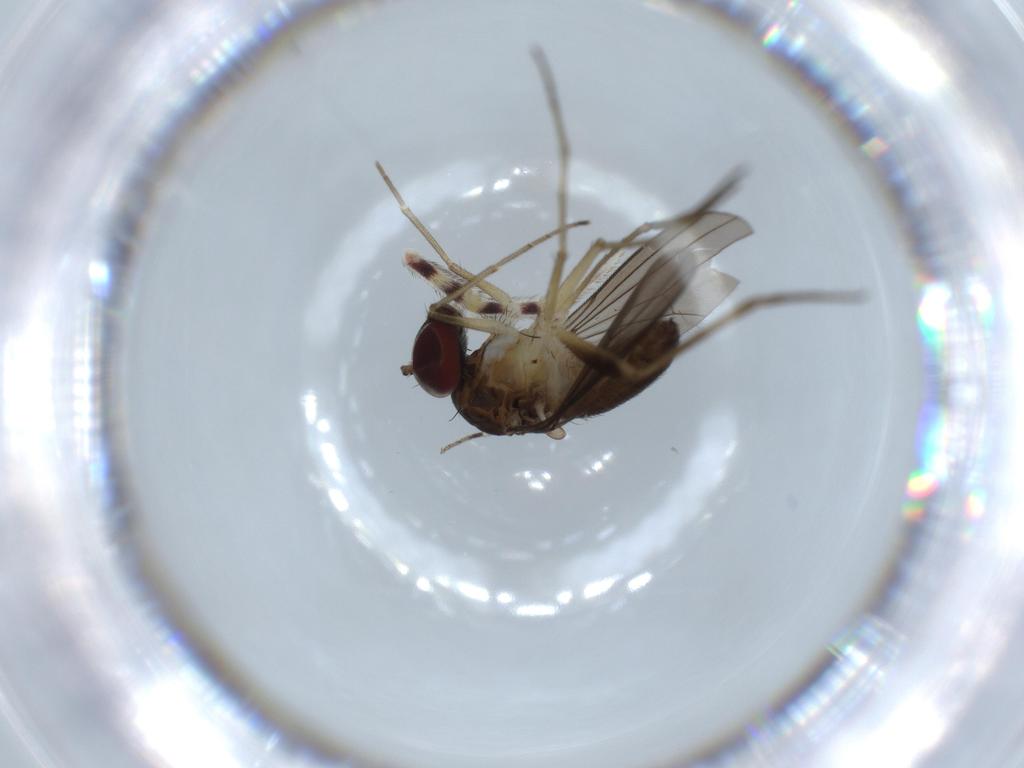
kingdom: Animalia
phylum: Arthropoda
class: Insecta
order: Diptera
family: Dolichopodidae
